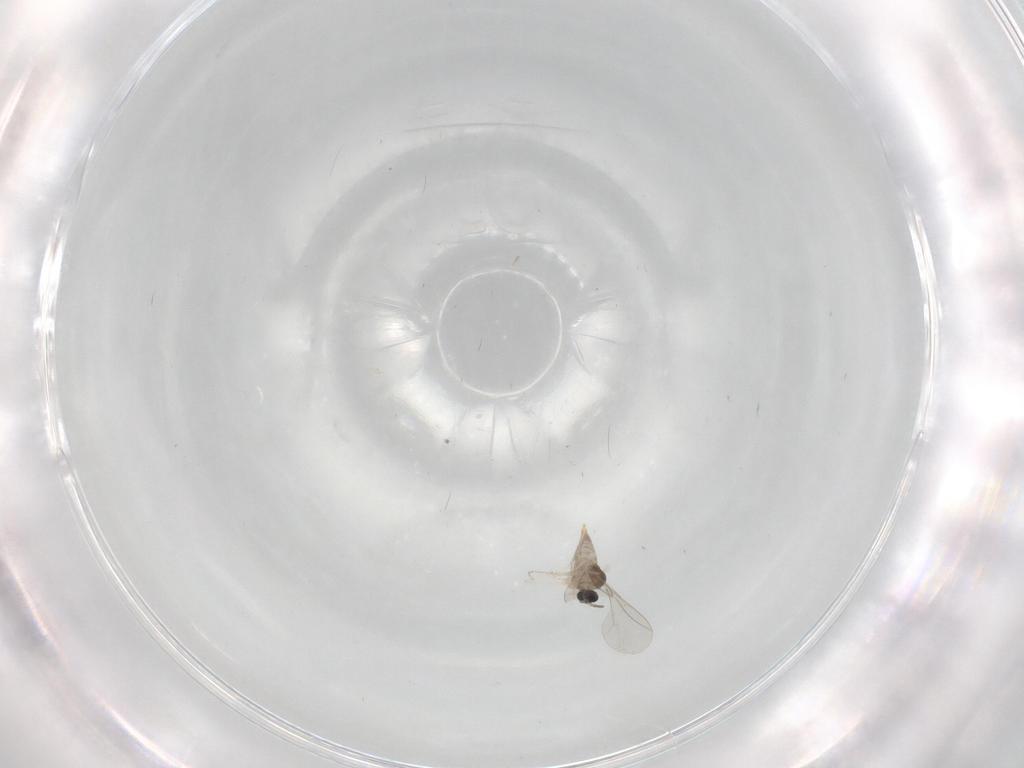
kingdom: Animalia
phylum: Arthropoda
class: Insecta
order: Diptera
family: Cecidomyiidae
